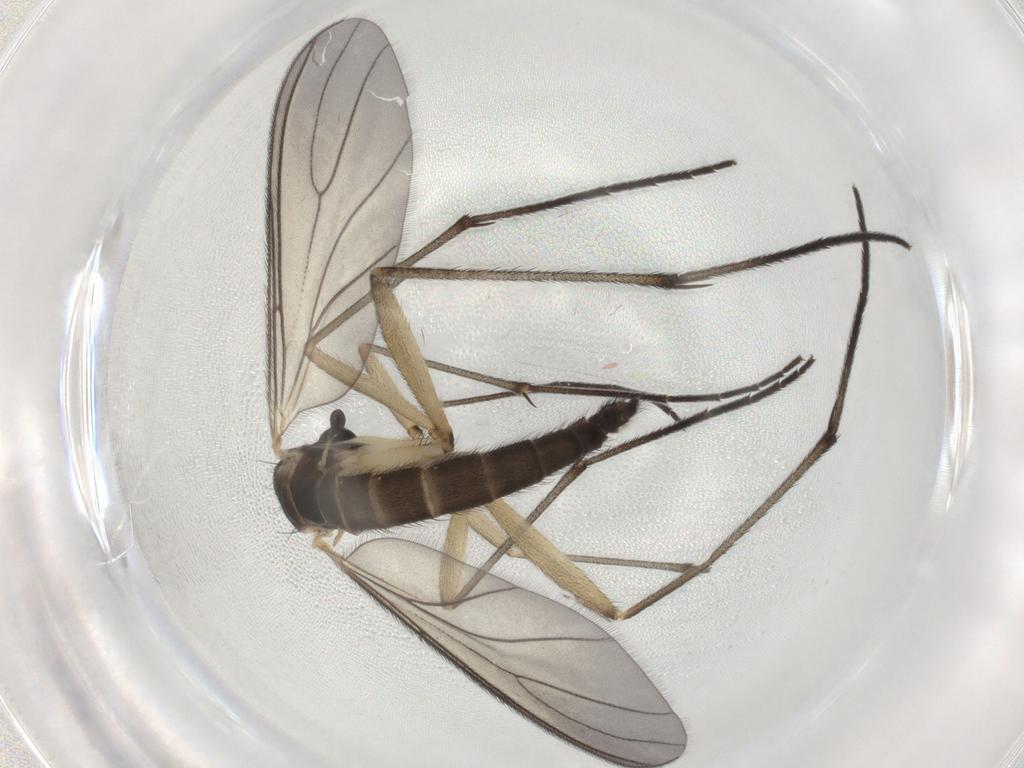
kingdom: Animalia
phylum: Arthropoda
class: Insecta
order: Diptera
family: Sciaridae
